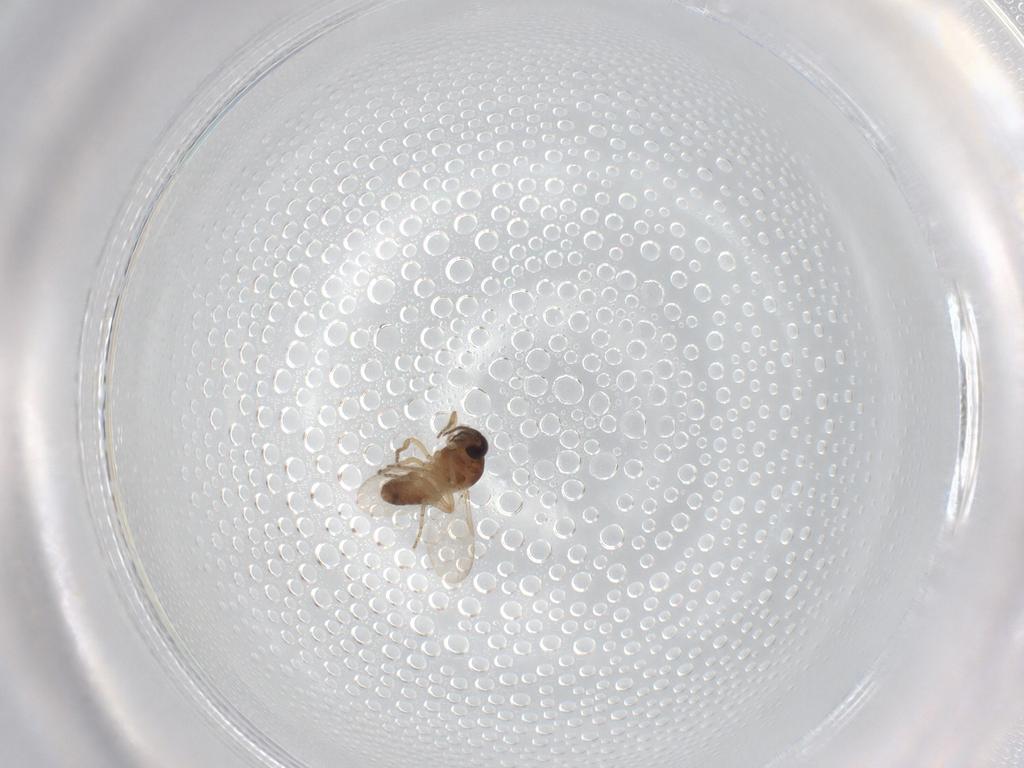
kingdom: Animalia
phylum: Arthropoda
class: Insecta
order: Diptera
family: Ceratopogonidae
